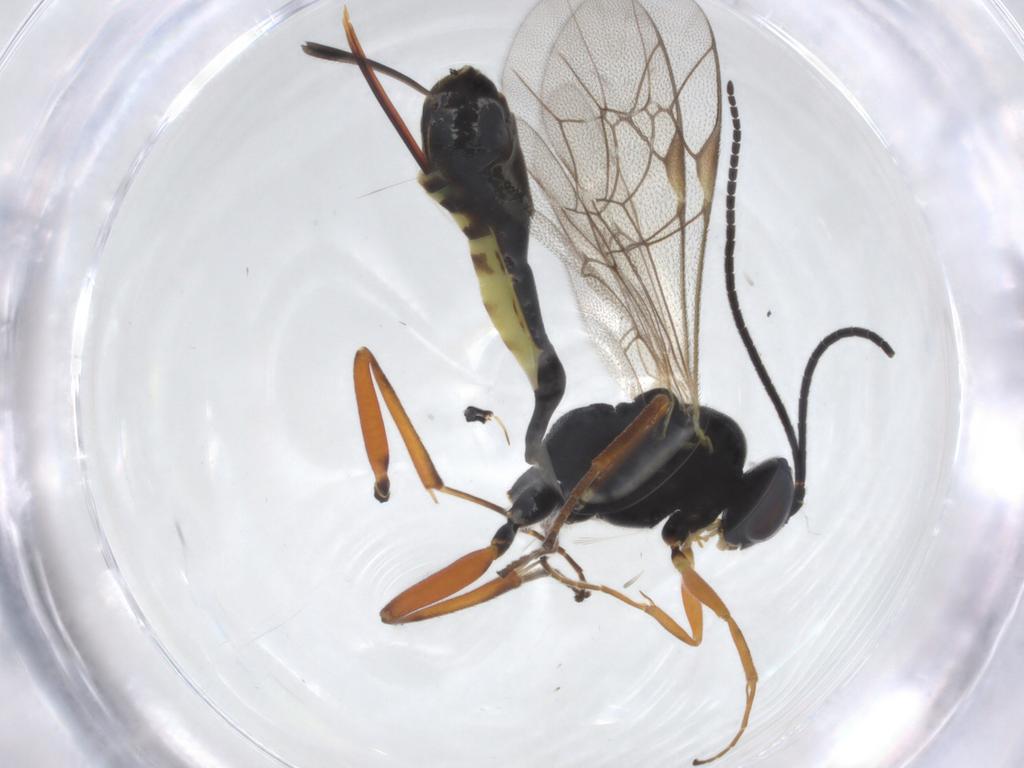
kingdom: Animalia
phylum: Arthropoda
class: Insecta
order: Hymenoptera
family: Ichneumonidae
